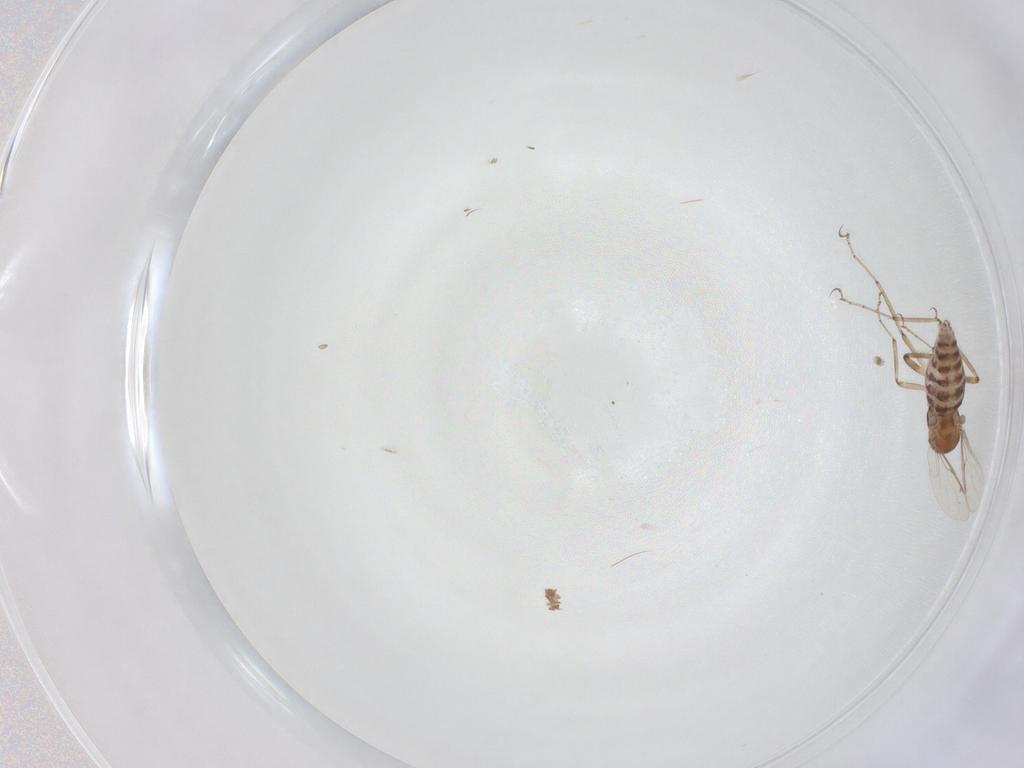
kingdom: Animalia
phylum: Arthropoda
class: Insecta
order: Diptera
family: Ceratopogonidae
